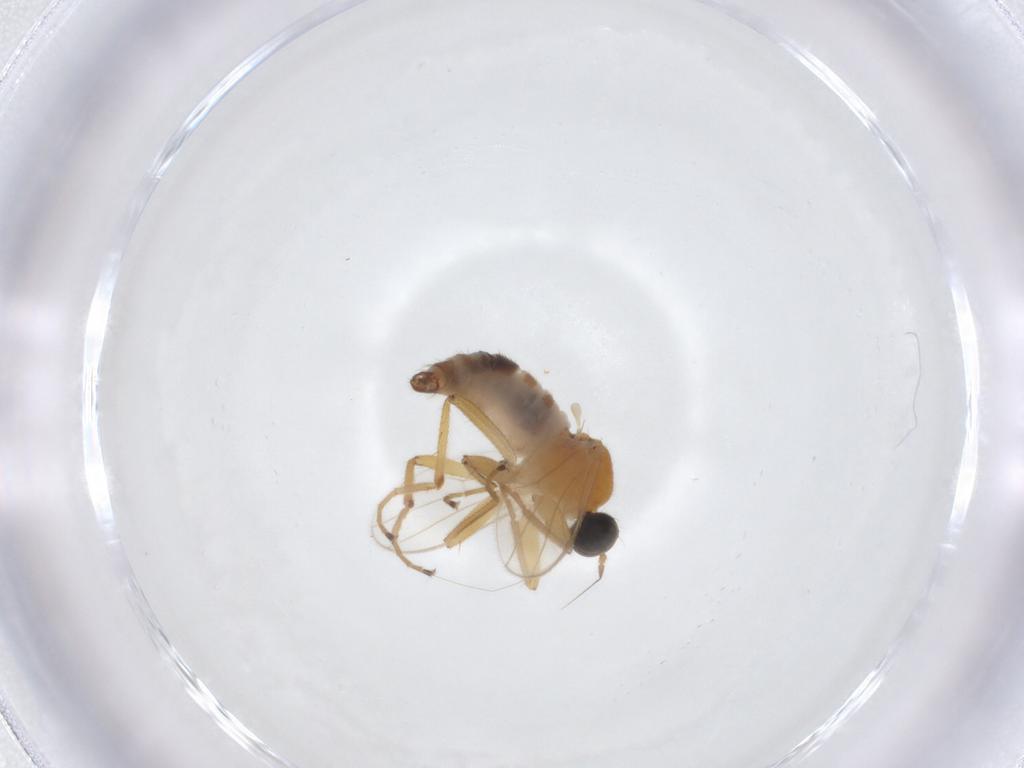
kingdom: Animalia
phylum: Arthropoda
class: Insecta
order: Diptera
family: Hybotidae
